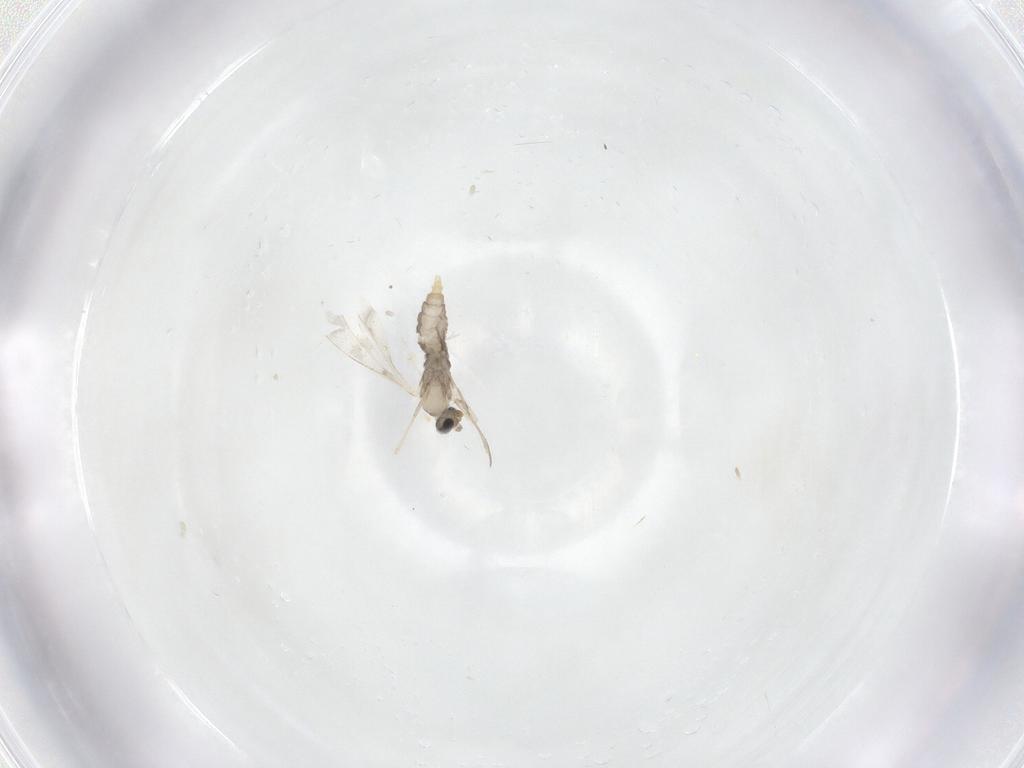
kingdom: Animalia
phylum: Arthropoda
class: Insecta
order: Diptera
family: Cecidomyiidae
